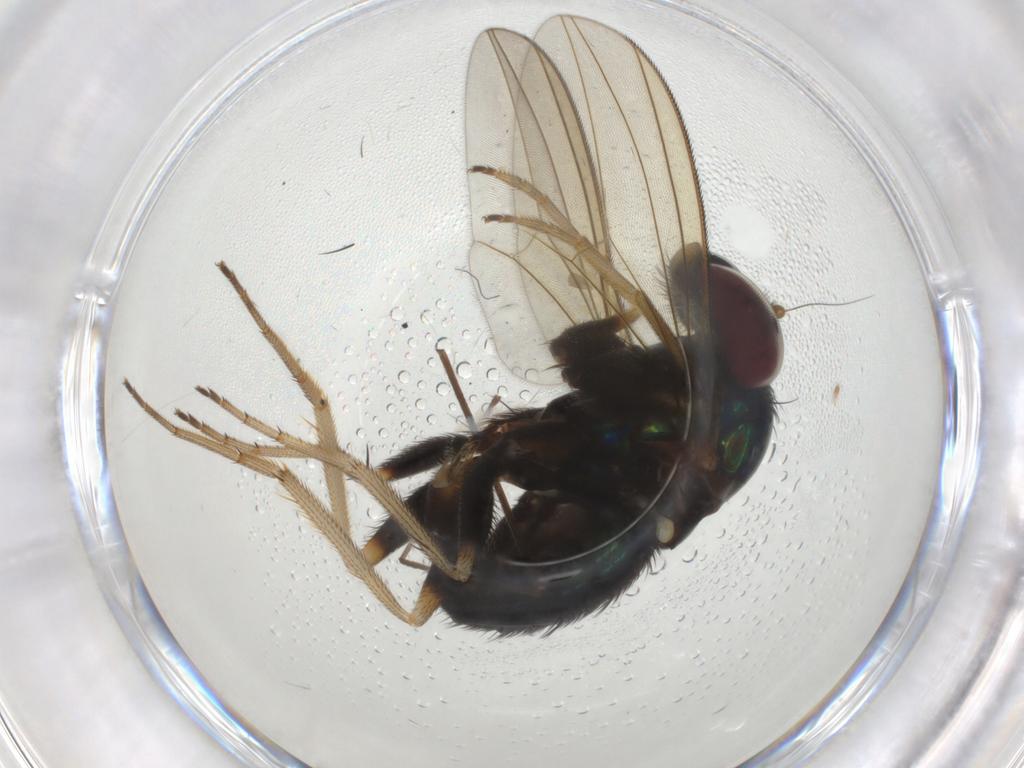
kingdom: Animalia
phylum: Arthropoda
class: Insecta
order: Diptera
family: Dolichopodidae
